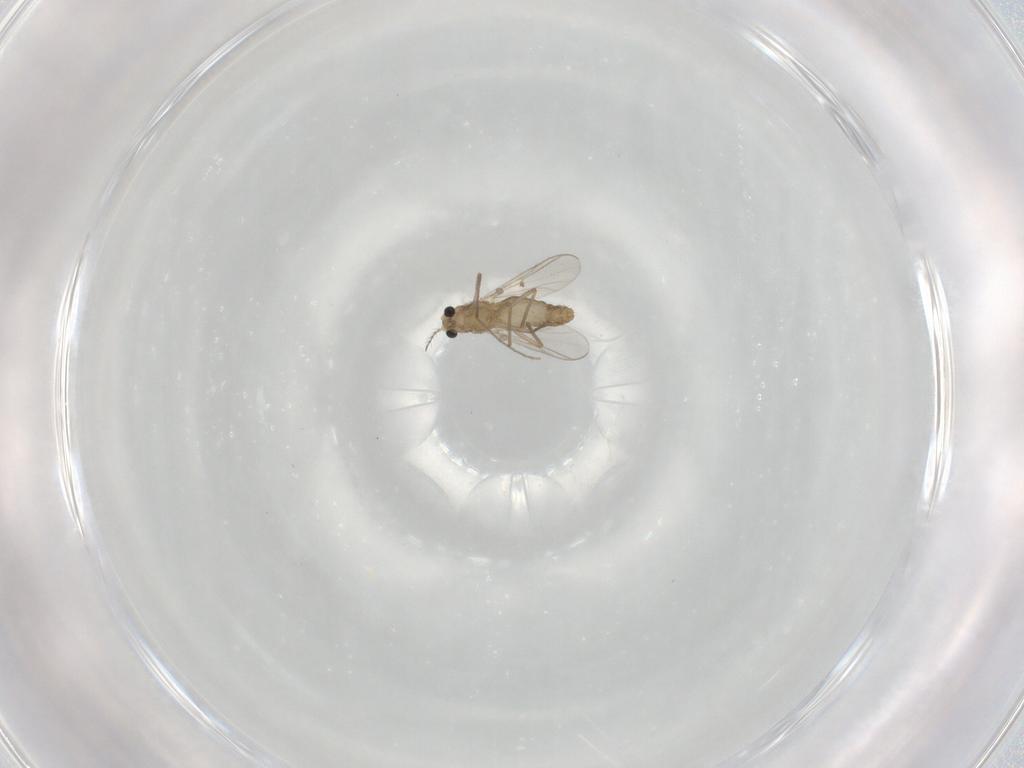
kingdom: Animalia
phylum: Arthropoda
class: Insecta
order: Diptera
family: Chironomidae
